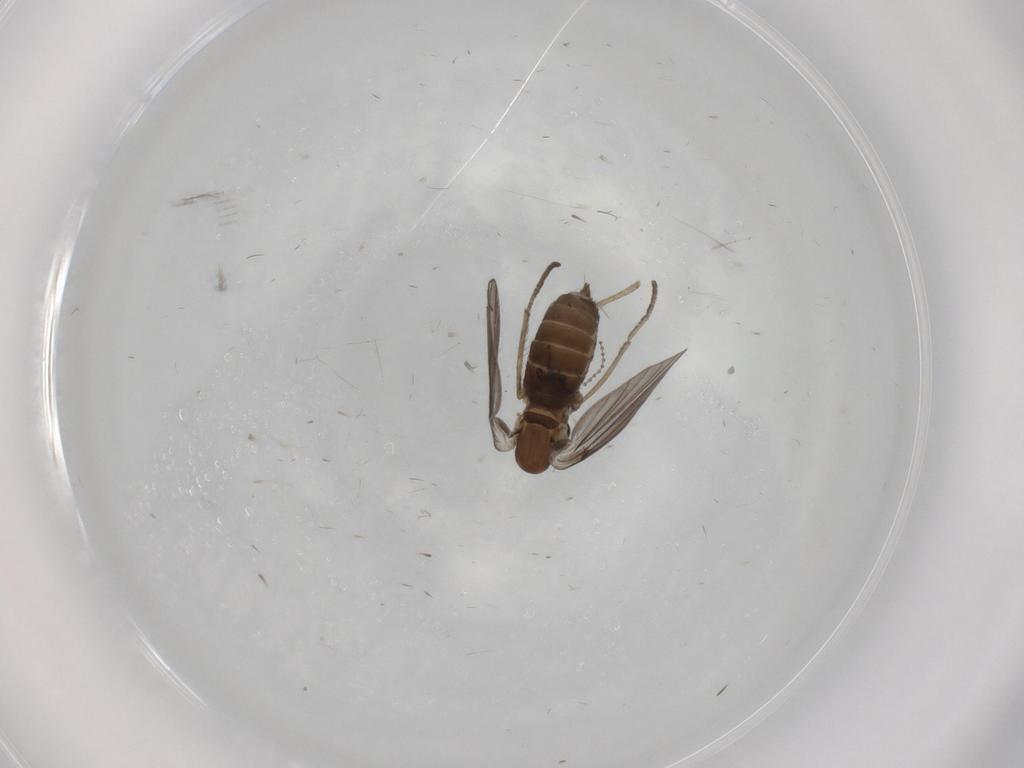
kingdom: Animalia
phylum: Arthropoda
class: Insecta
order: Diptera
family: Psychodidae
